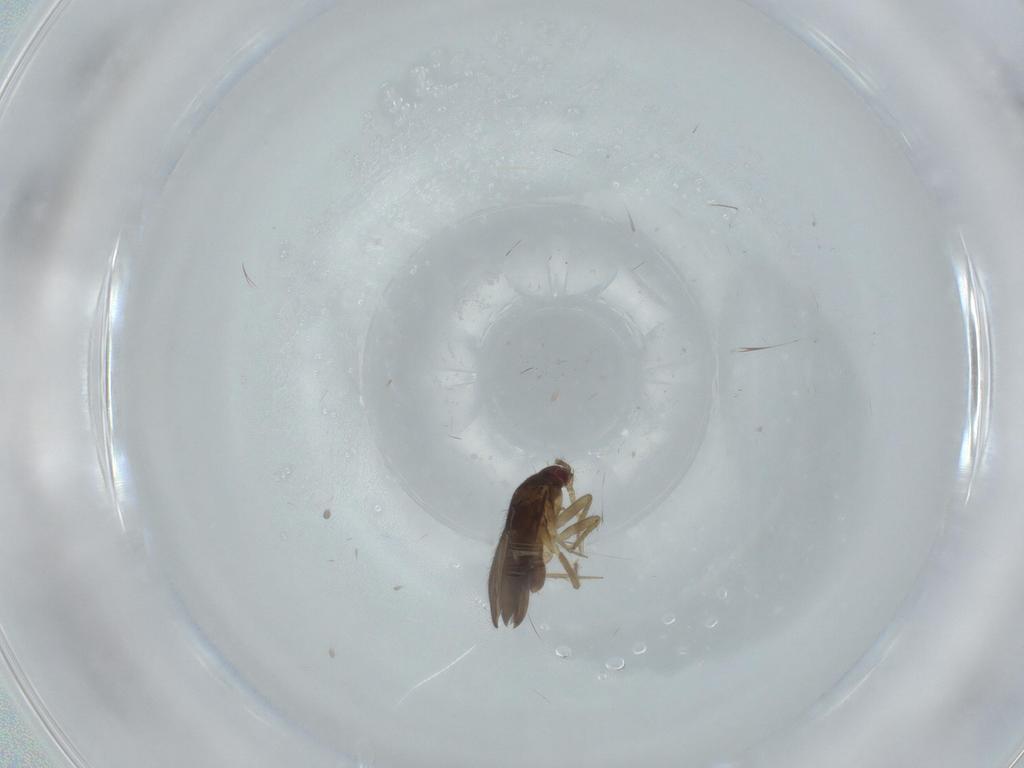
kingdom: Animalia
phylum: Arthropoda
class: Insecta
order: Hemiptera
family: Ceratocombidae
